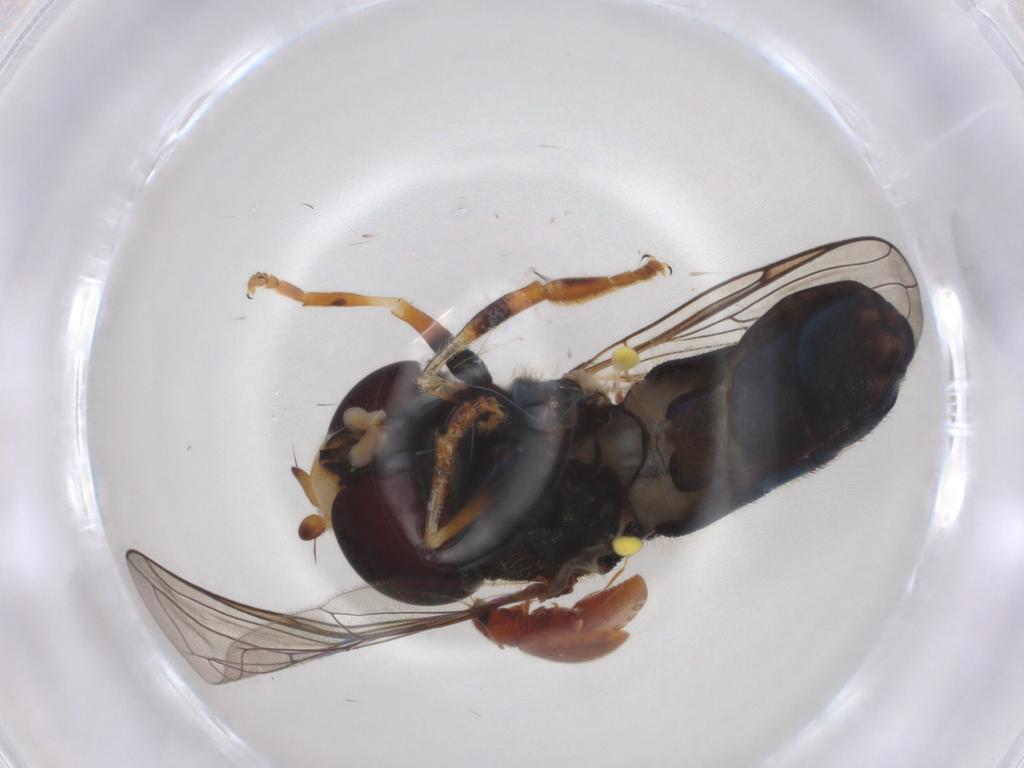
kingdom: Animalia
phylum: Arthropoda
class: Insecta
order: Diptera
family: Syrphidae
